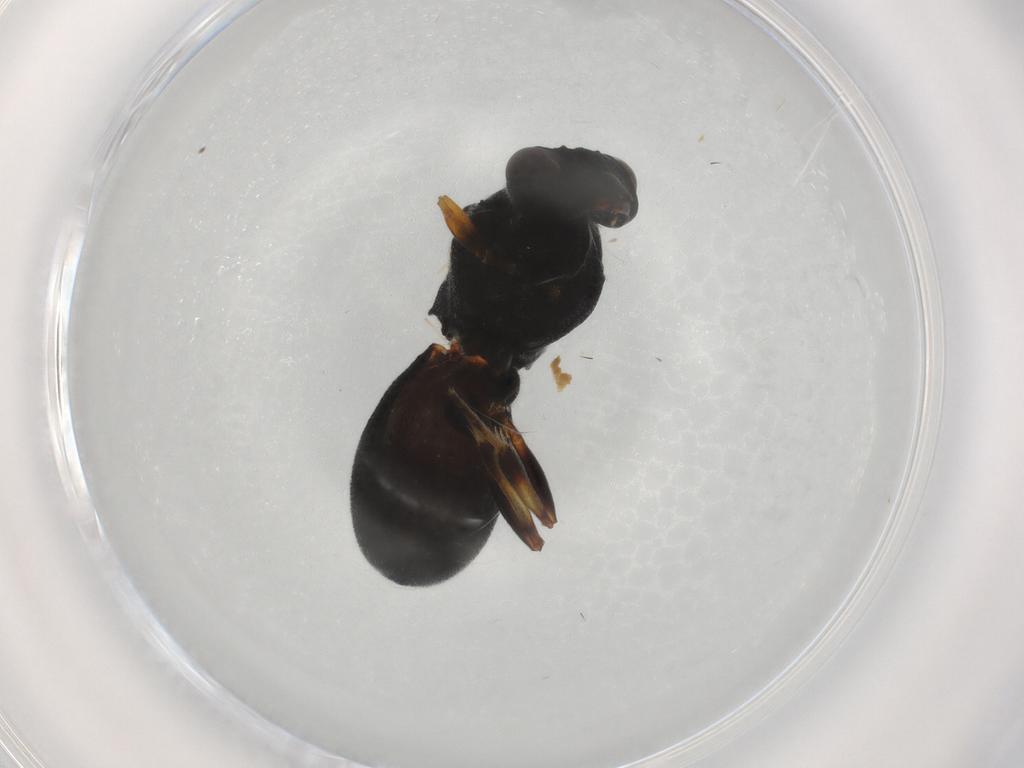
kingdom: Animalia
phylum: Arthropoda
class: Insecta
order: Hymenoptera
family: Braconidae
